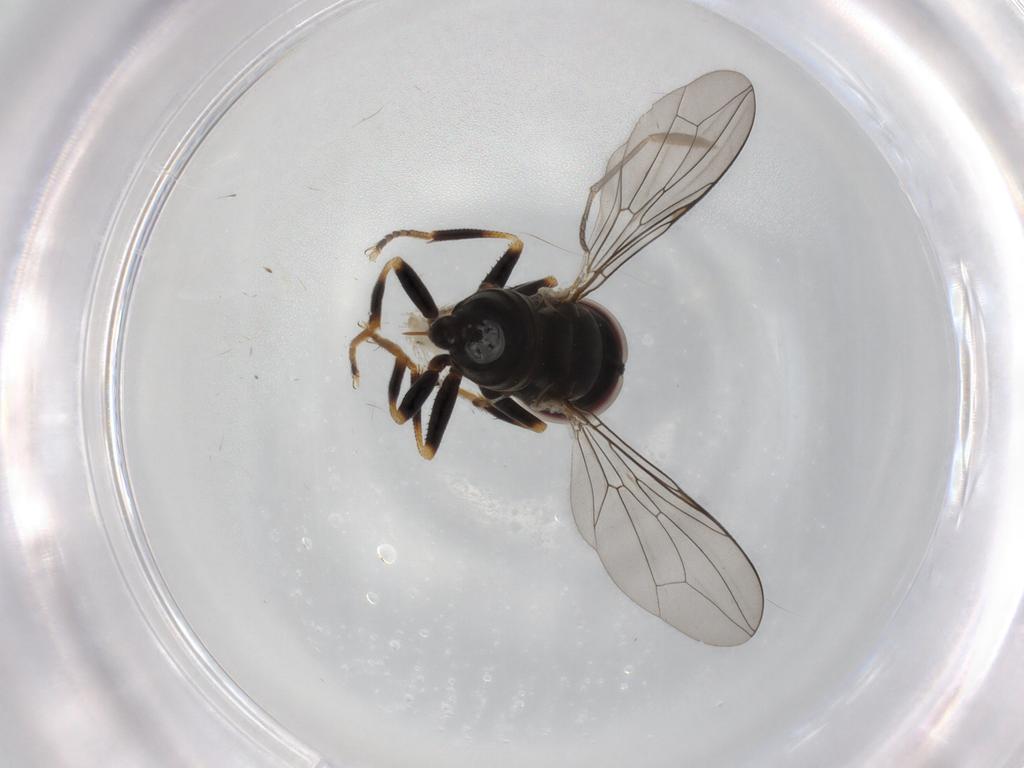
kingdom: Animalia
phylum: Arthropoda
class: Insecta
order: Diptera
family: Pipunculidae
